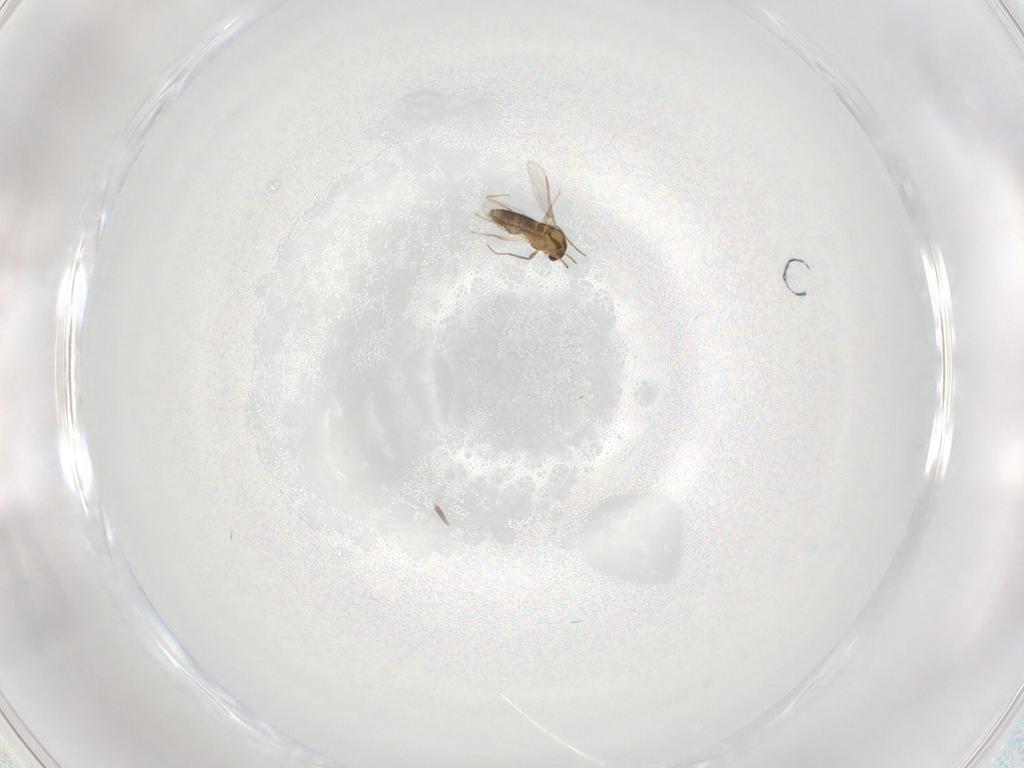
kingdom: Animalia
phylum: Arthropoda
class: Insecta
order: Diptera
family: Chironomidae
